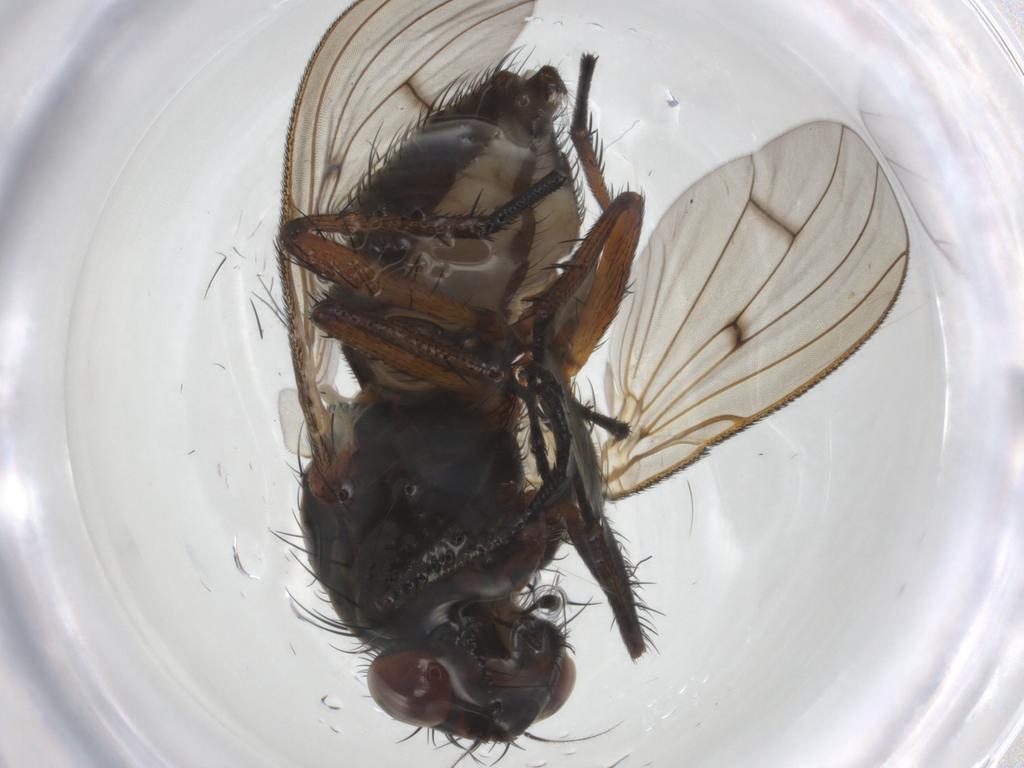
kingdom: Animalia
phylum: Arthropoda
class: Insecta
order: Diptera
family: Anthomyiidae
